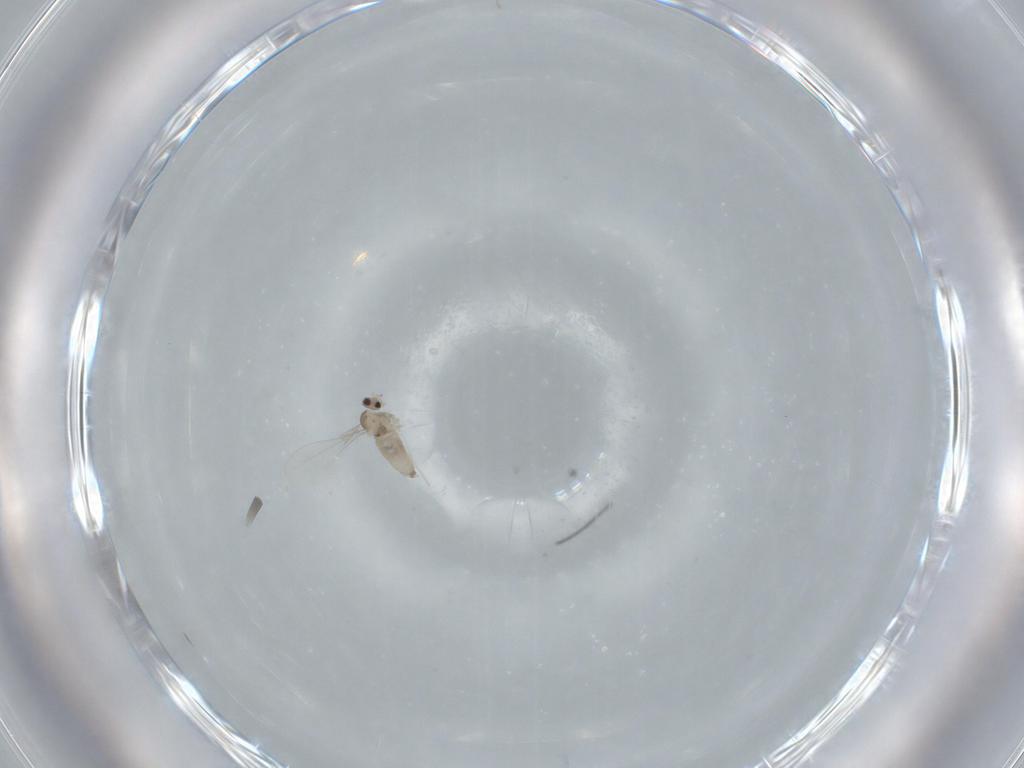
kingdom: Animalia
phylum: Arthropoda
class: Insecta
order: Diptera
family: Cecidomyiidae
